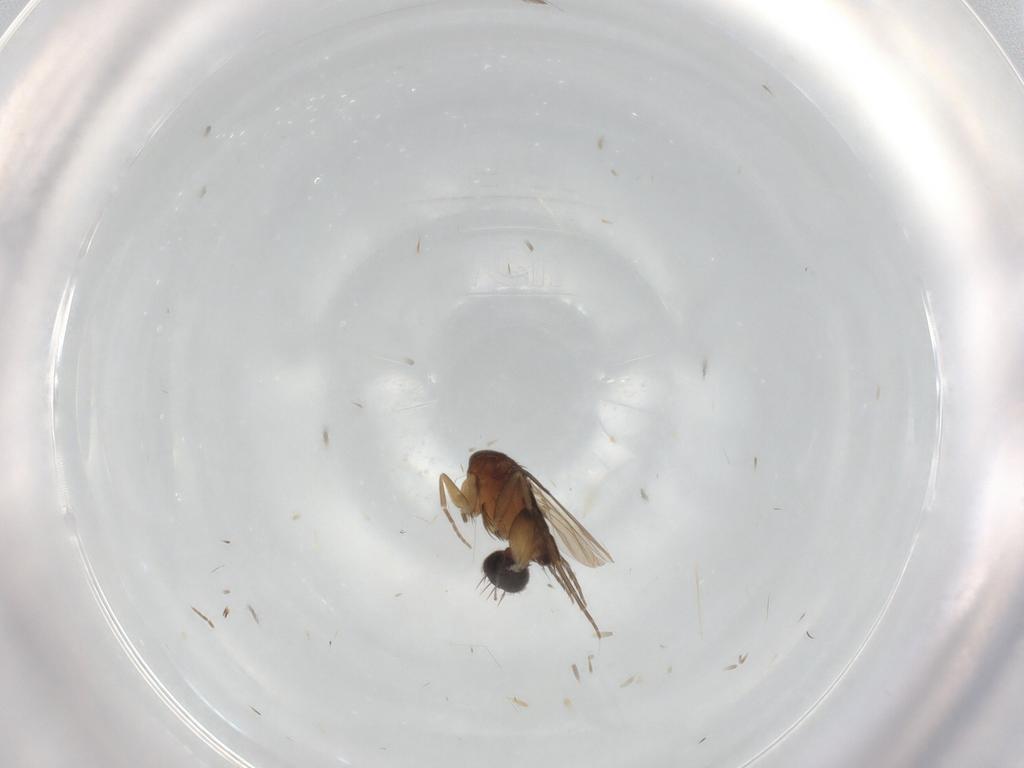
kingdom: Animalia
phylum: Arthropoda
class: Insecta
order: Diptera
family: Phoridae
